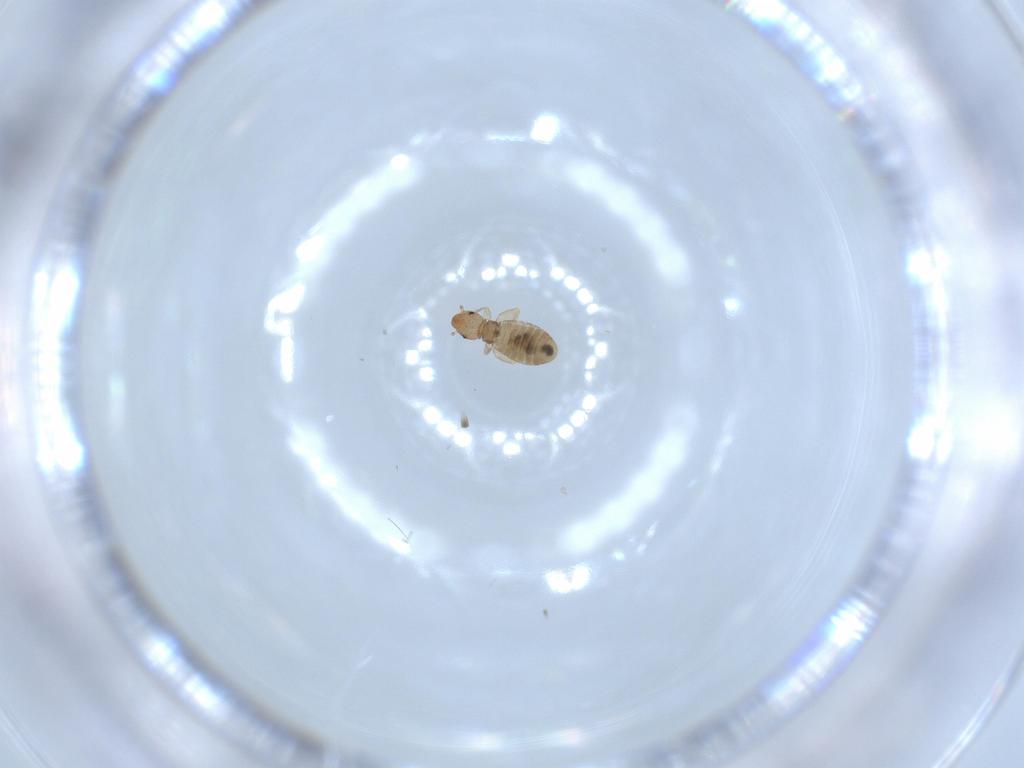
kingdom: Animalia
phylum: Arthropoda
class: Insecta
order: Psocodea
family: Liposcelididae
